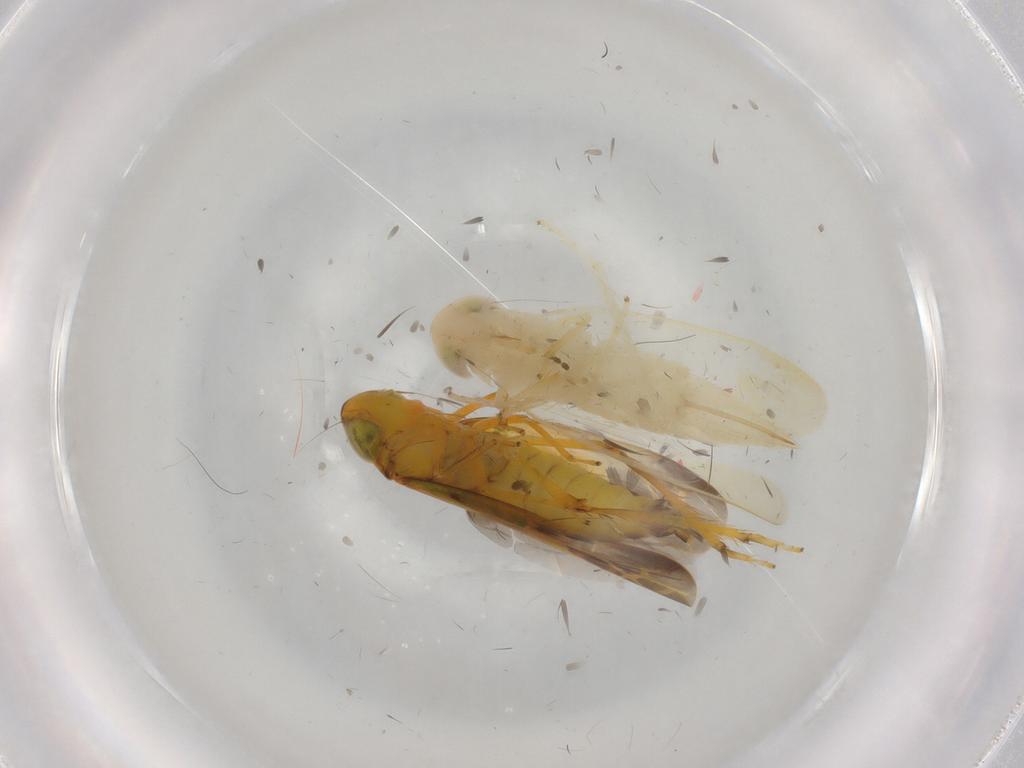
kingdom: Animalia
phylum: Arthropoda
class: Insecta
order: Hemiptera
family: Cicadellidae
